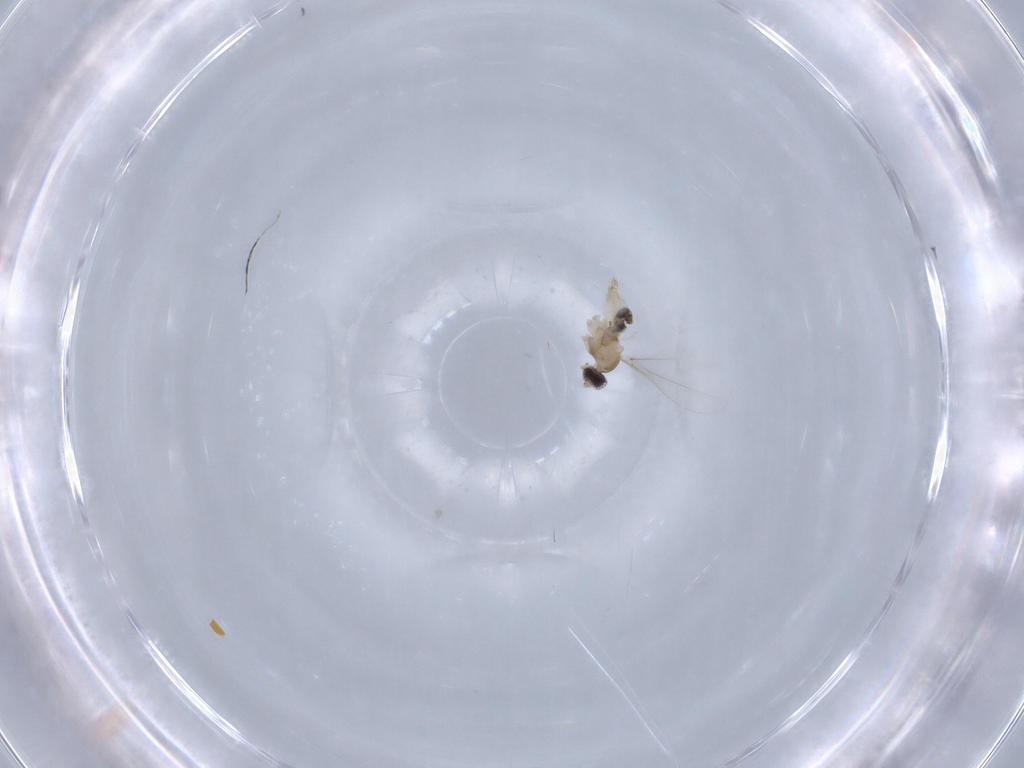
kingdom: Animalia
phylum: Arthropoda
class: Insecta
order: Diptera
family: Cecidomyiidae
